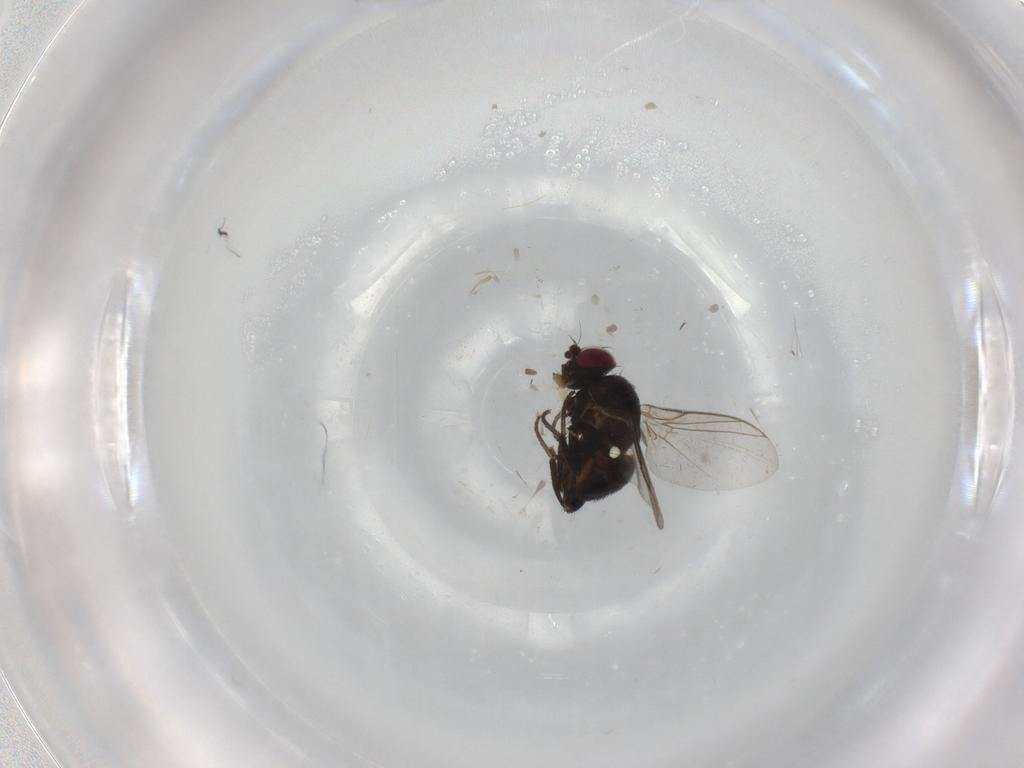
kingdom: Animalia
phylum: Arthropoda
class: Insecta
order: Diptera
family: Agromyzidae
